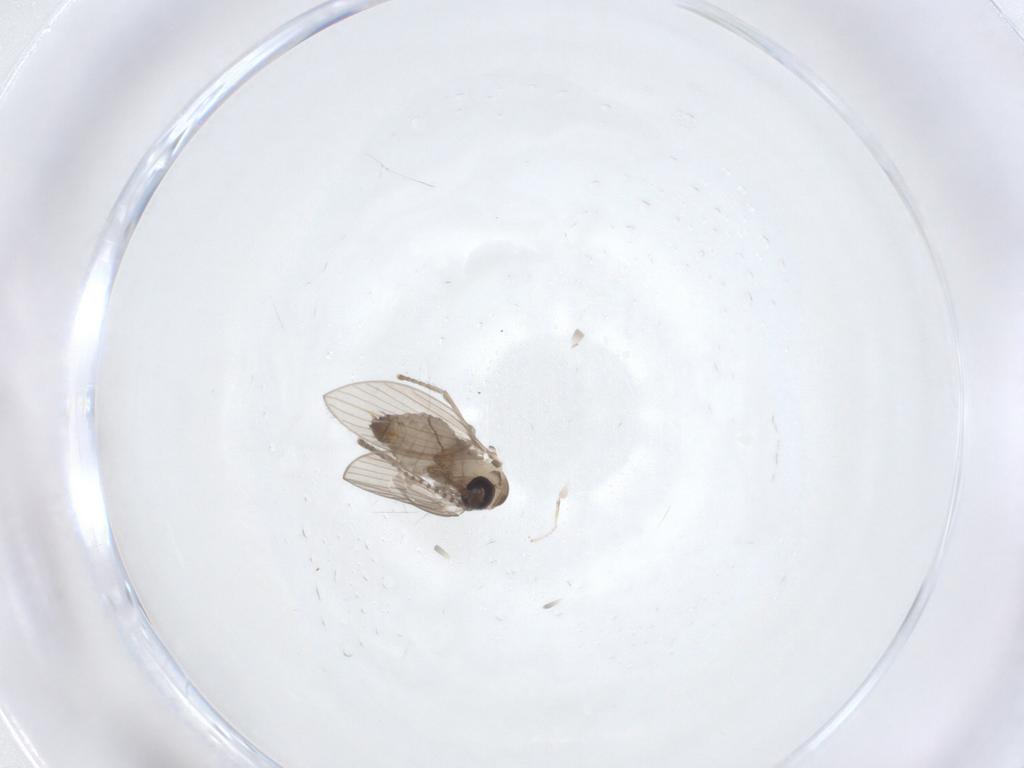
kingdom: Animalia
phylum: Arthropoda
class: Insecta
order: Diptera
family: Psychodidae
